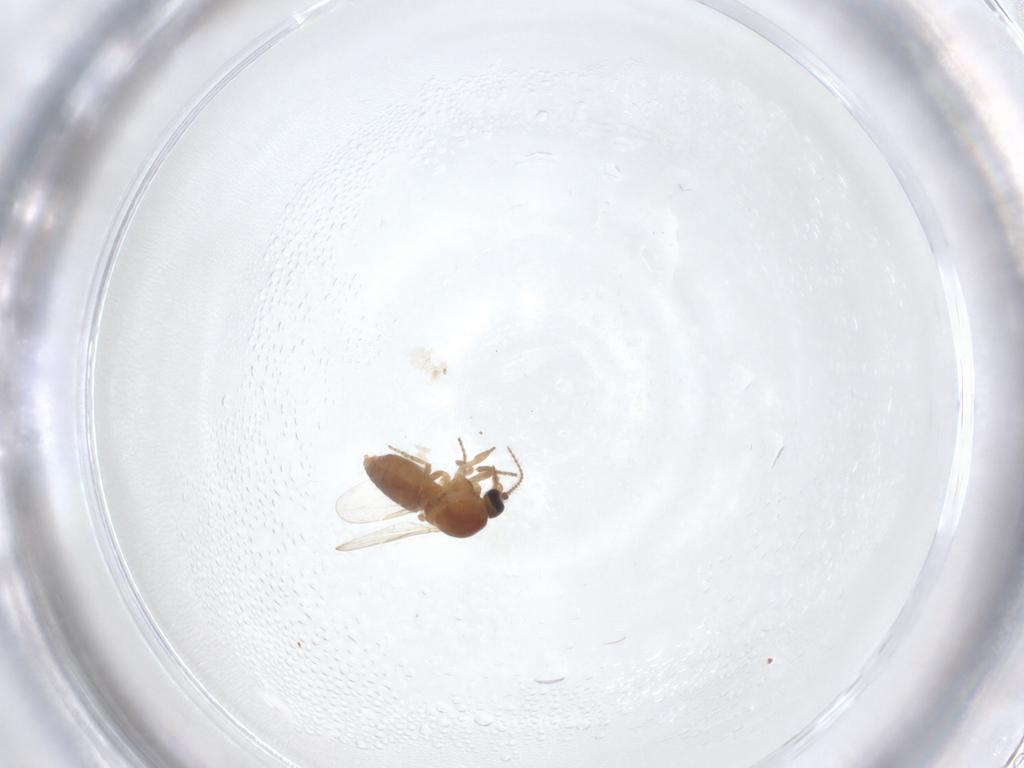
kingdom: Animalia
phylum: Arthropoda
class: Insecta
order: Diptera
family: Ceratopogonidae
